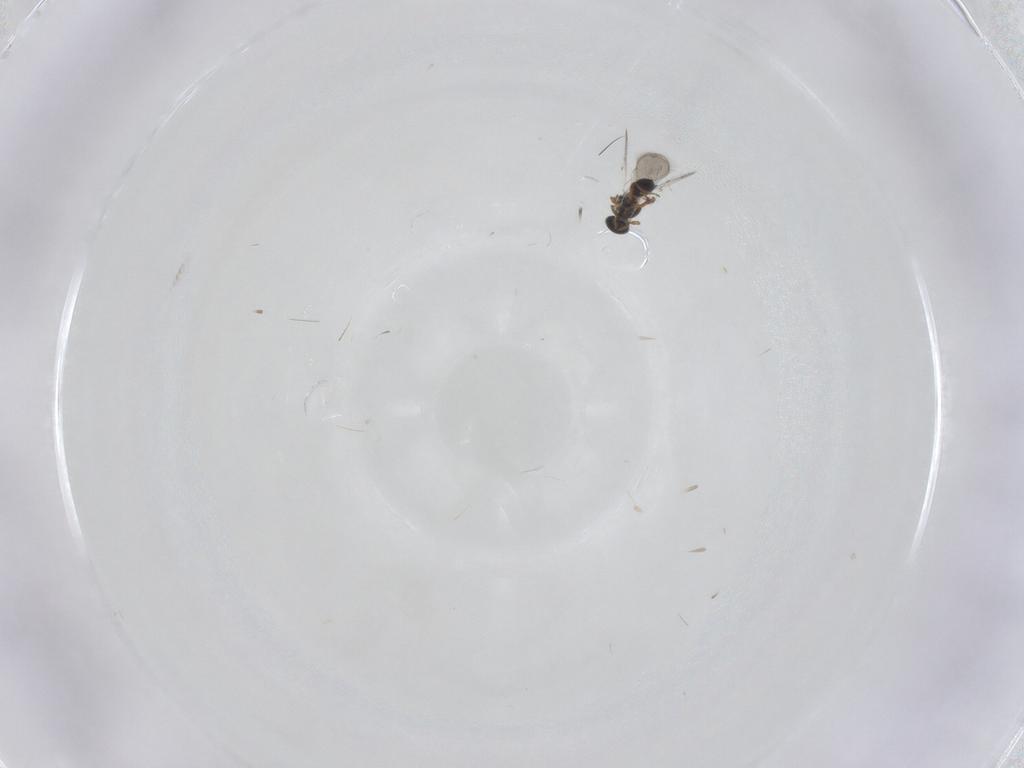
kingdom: Animalia
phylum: Arthropoda
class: Insecta
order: Hymenoptera
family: Platygastridae
